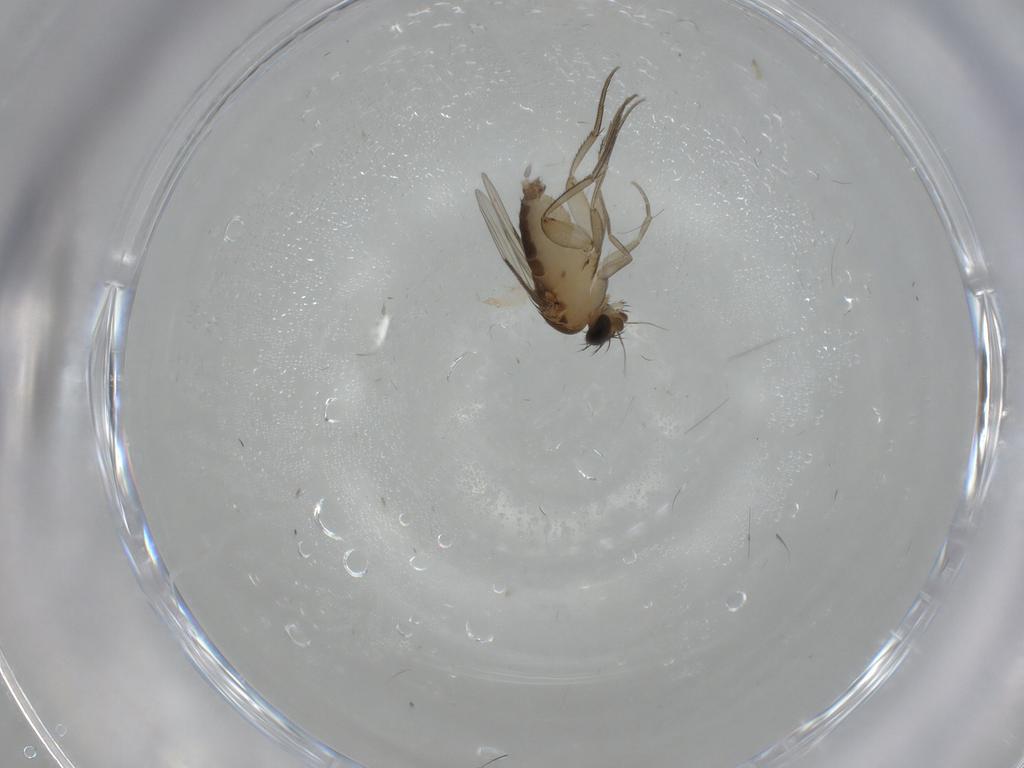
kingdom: Animalia
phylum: Arthropoda
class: Insecta
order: Diptera
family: Phoridae
